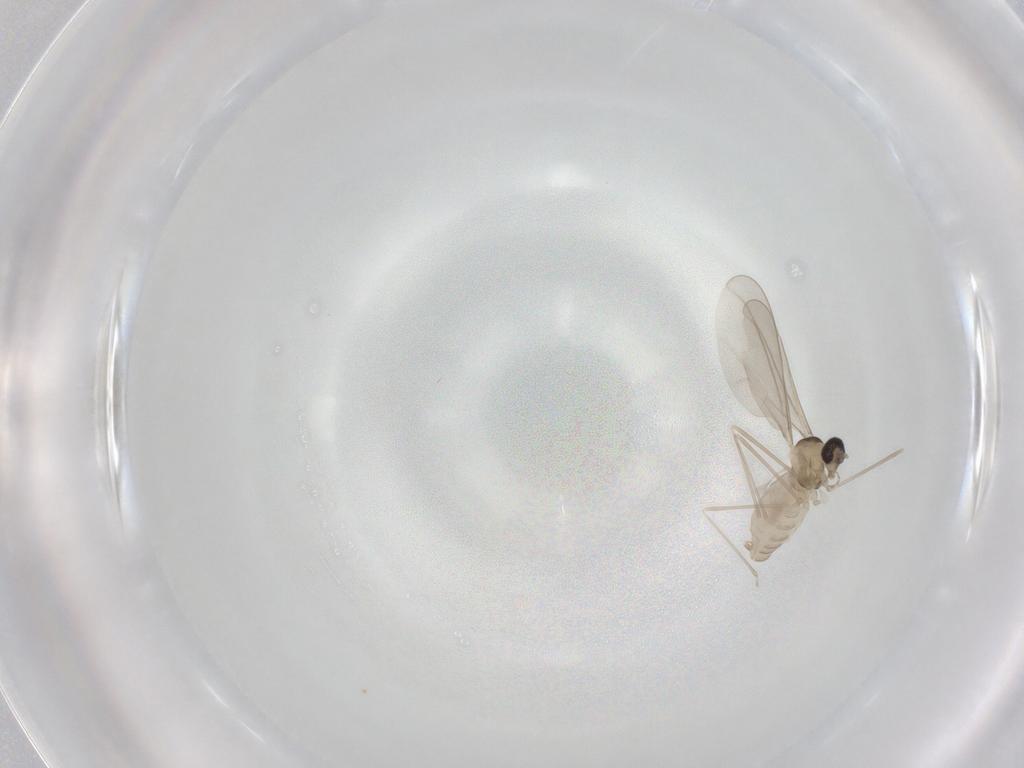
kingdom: Animalia
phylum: Arthropoda
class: Insecta
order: Diptera
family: Cecidomyiidae
